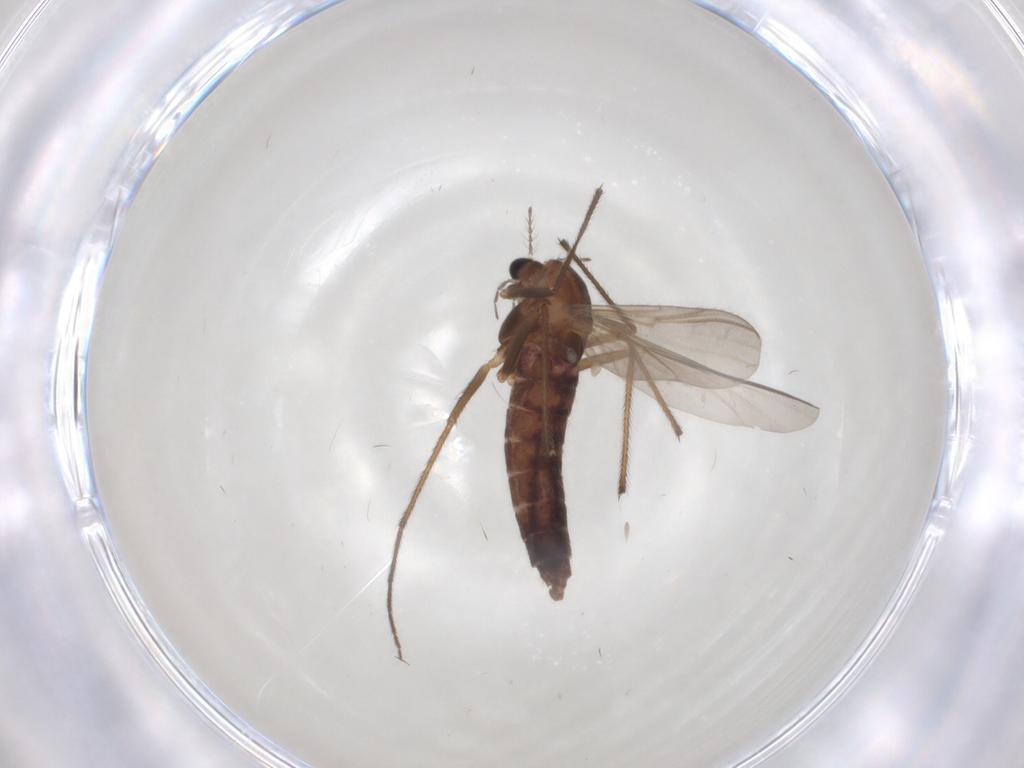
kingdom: Animalia
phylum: Arthropoda
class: Insecta
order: Diptera
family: Chironomidae
